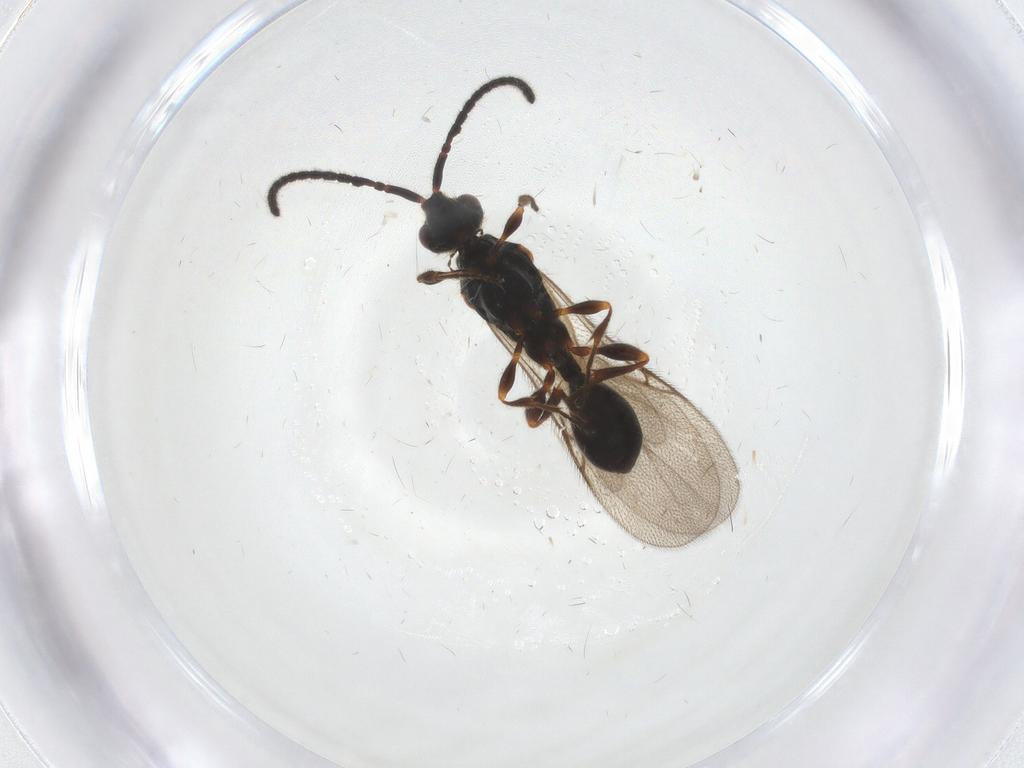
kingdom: Animalia
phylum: Arthropoda
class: Insecta
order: Hymenoptera
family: Diapriidae
